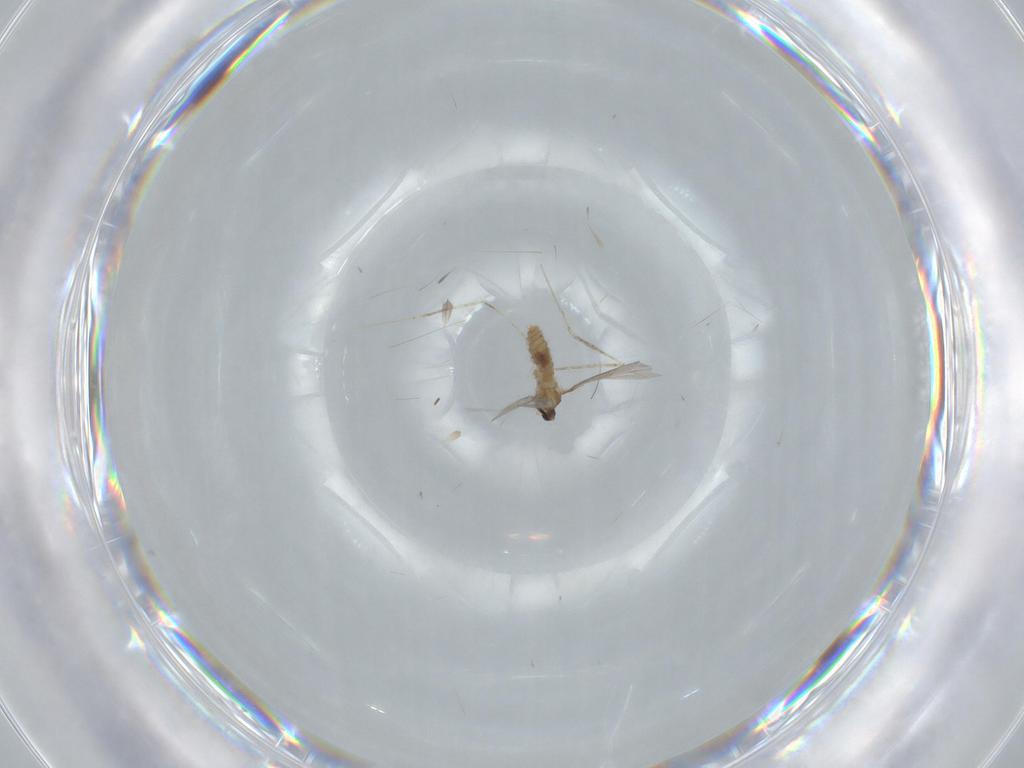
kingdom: Animalia
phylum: Arthropoda
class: Insecta
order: Diptera
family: Cecidomyiidae
